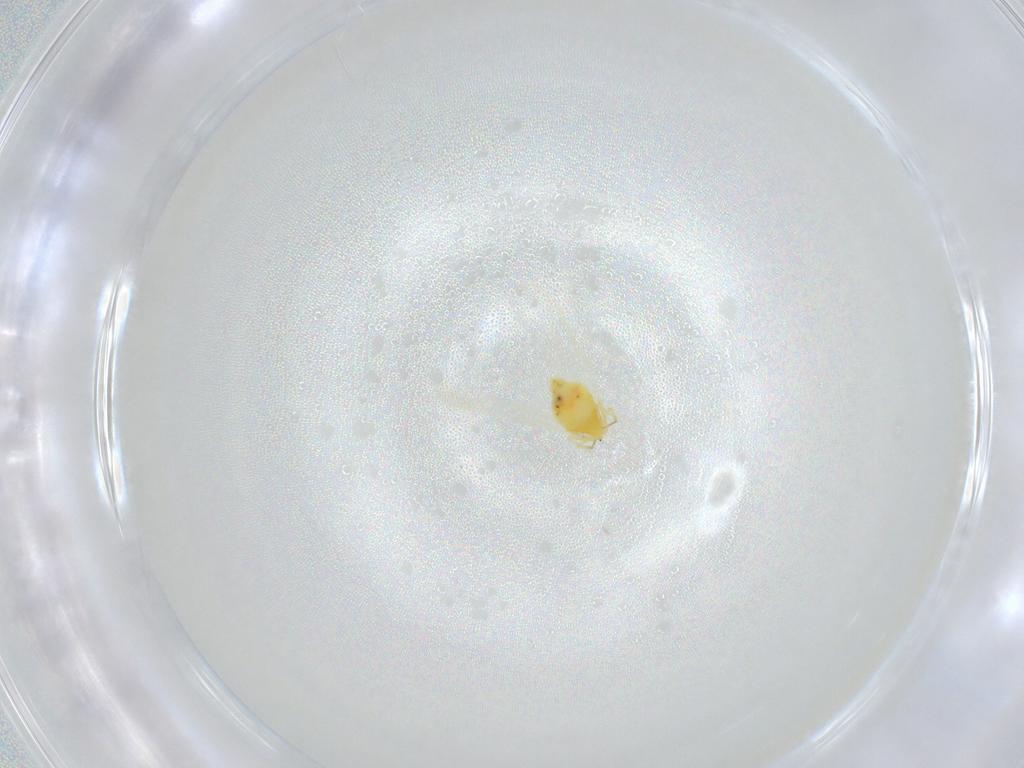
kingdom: Animalia
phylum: Arthropoda
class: Insecta
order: Hemiptera
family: Aleyrodidae
